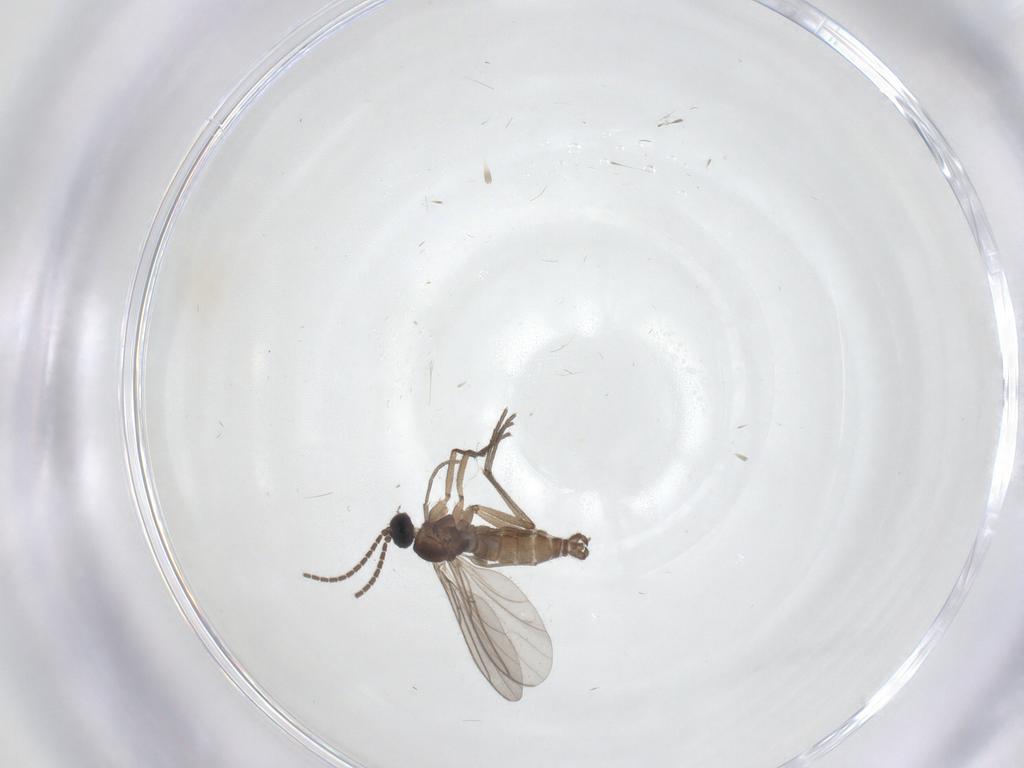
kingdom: Animalia
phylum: Arthropoda
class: Insecta
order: Diptera
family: Sciaridae
